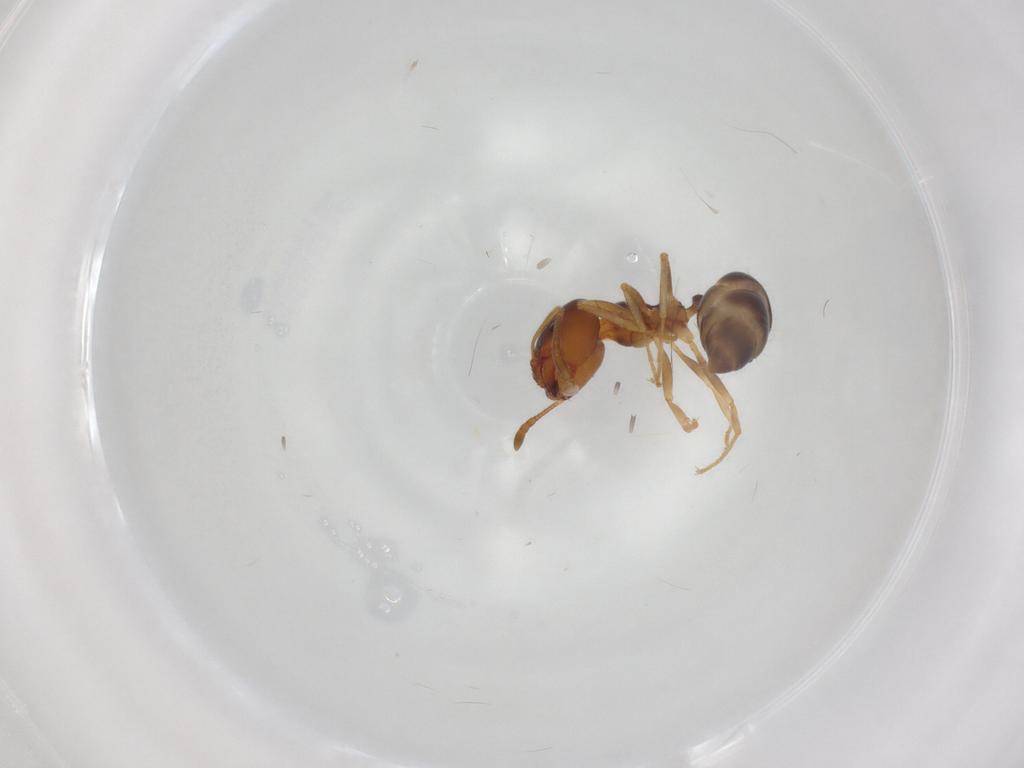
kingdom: Animalia
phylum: Arthropoda
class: Insecta
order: Hymenoptera
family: Formicidae
